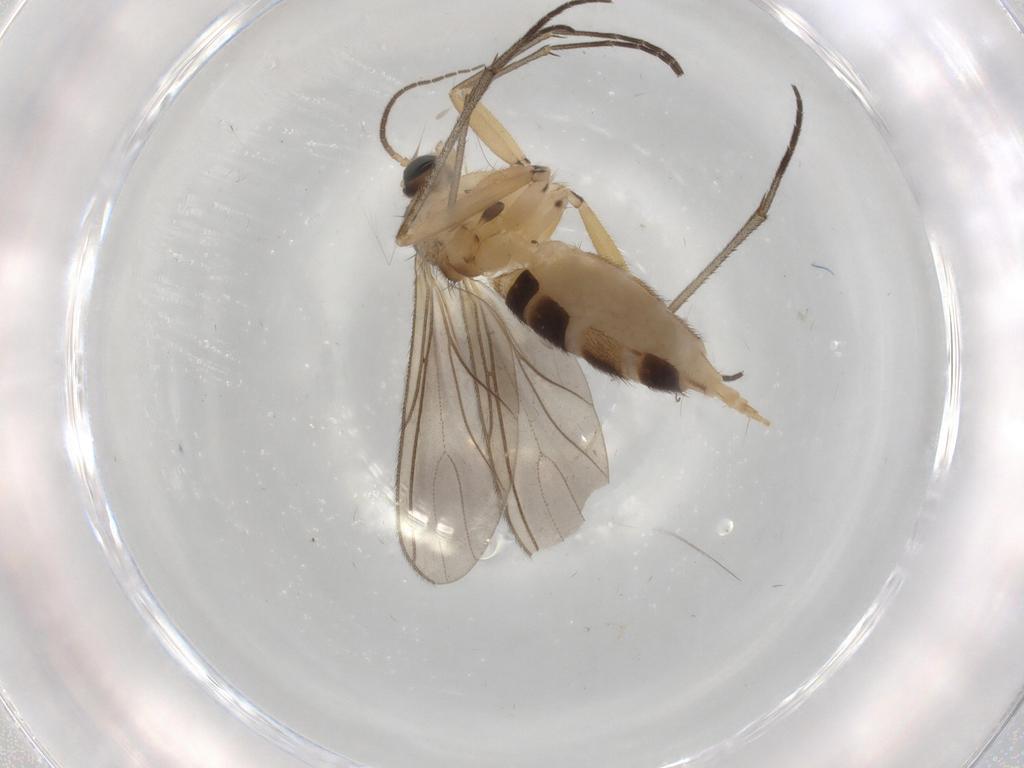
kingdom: Animalia
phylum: Arthropoda
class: Insecta
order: Diptera
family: Sciaridae
